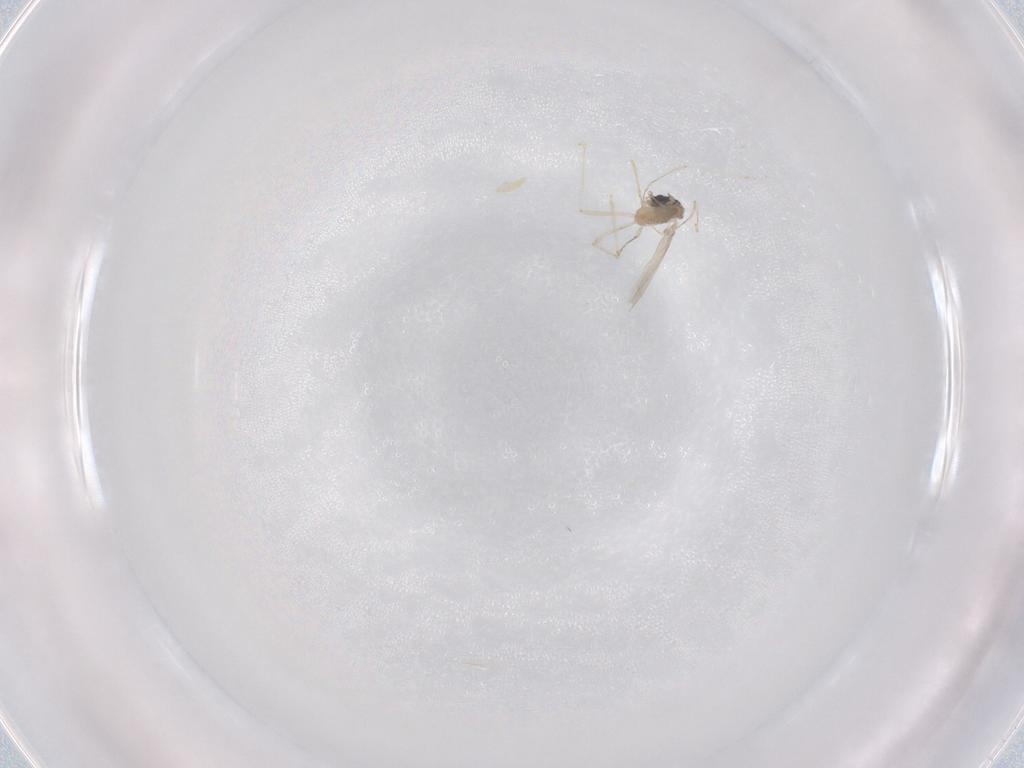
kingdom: Animalia
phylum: Arthropoda
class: Insecta
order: Diptera
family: Cecidomyiidae
